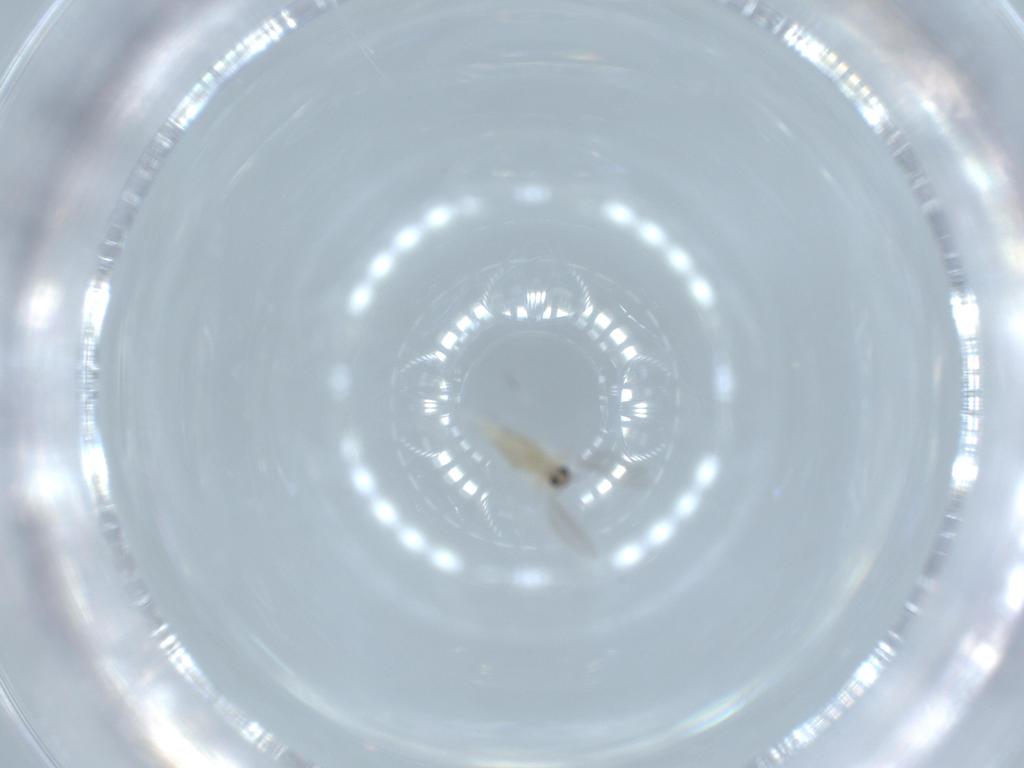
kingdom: Animalia
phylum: Arthropoda
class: Insecta
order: Diptera
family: Cecidomyiidae
